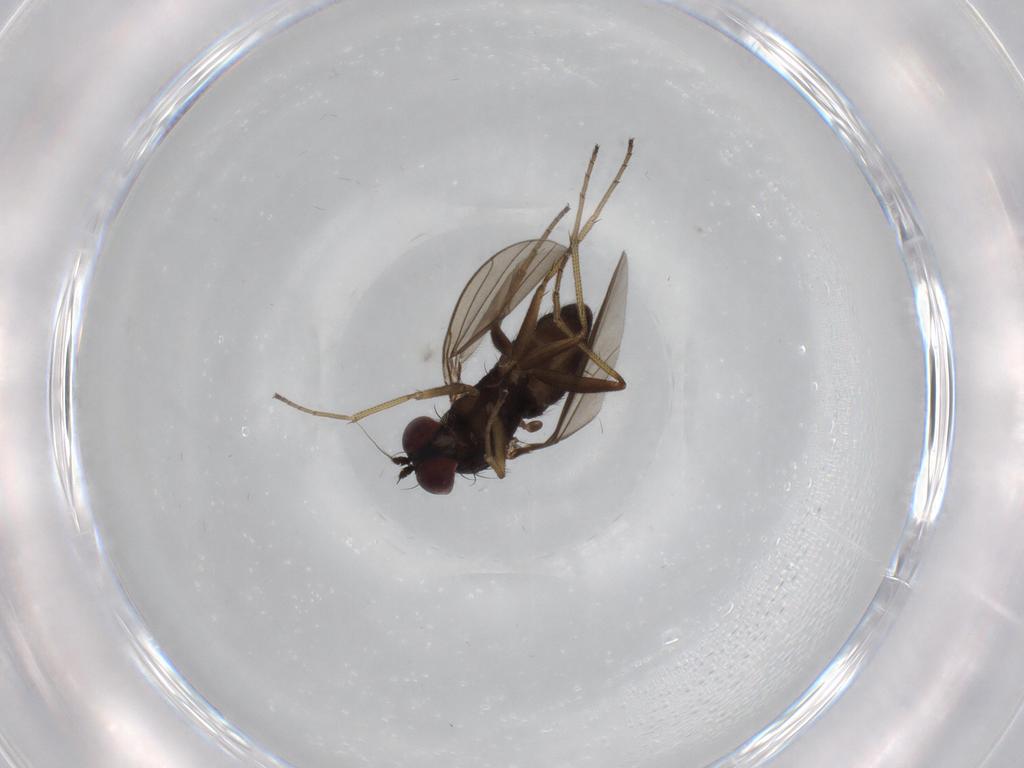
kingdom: Animalia
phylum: Arthropoda
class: Insecta
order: Diptera
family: Dolichopodidae
